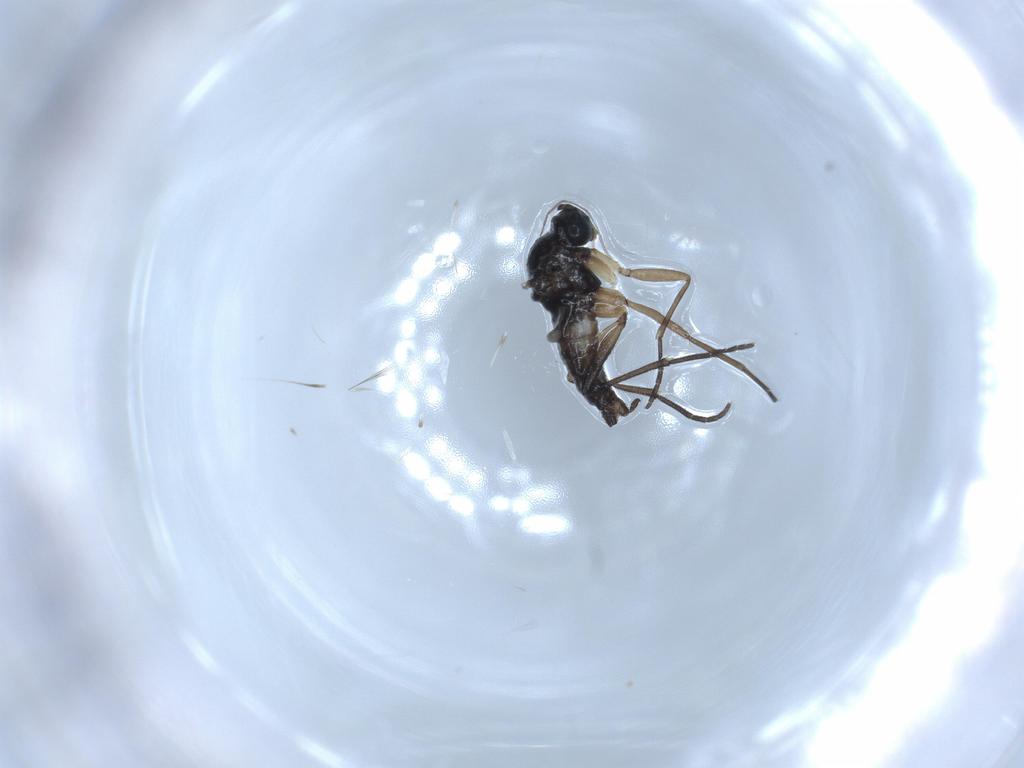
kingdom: Animalia
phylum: Arthropoda
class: Insecta
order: Diptera
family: Sciaridae
